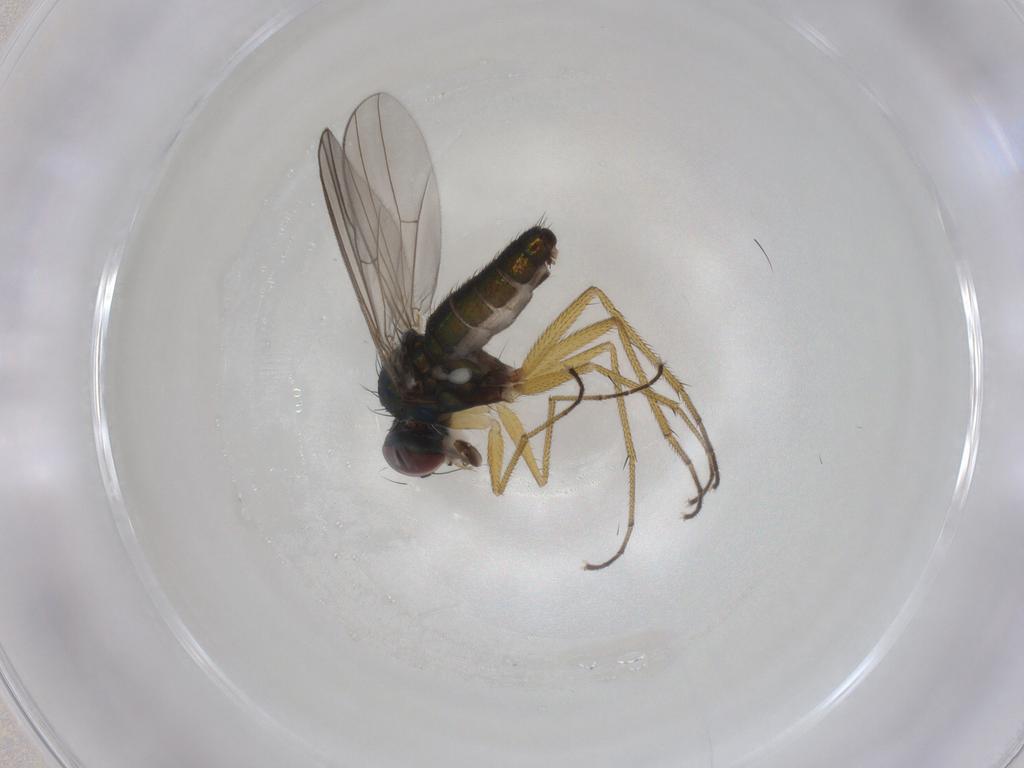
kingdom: Animalia
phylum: Arthropoda
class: Insecta
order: Diptera
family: Dolichopodidae
